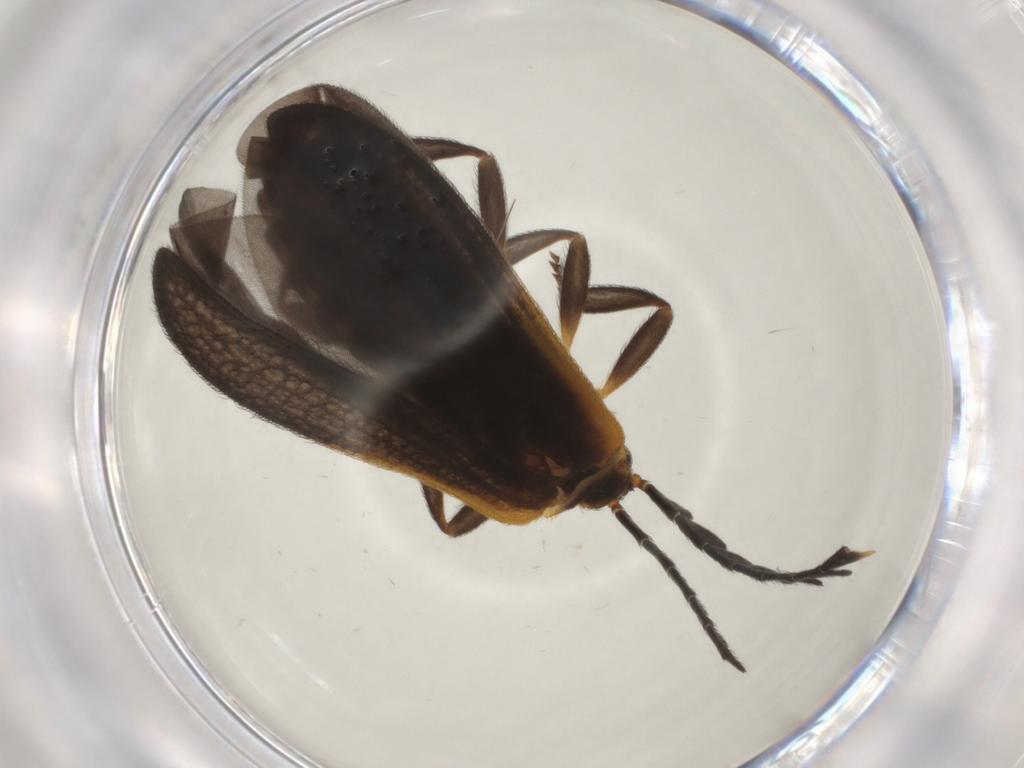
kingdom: Animalia
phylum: Arthropoda
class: Insecta
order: Coleoptera
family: Lycidae
